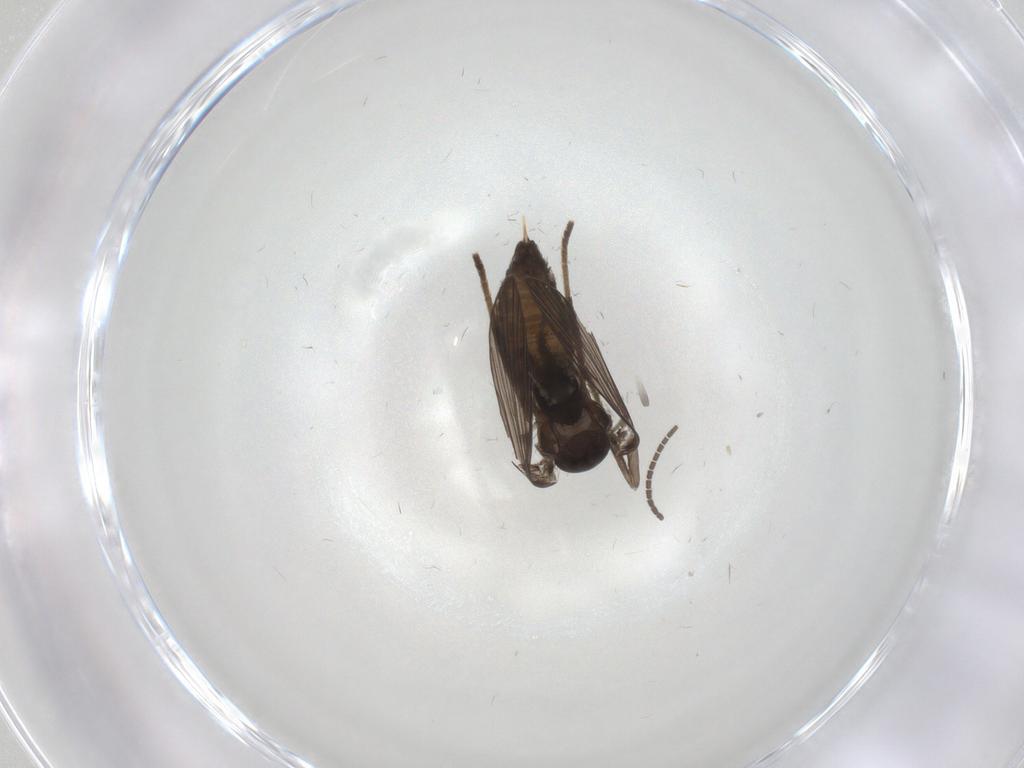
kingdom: Animalia
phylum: Arthropoda
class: Insecta
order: Diptera
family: Psychodidae
